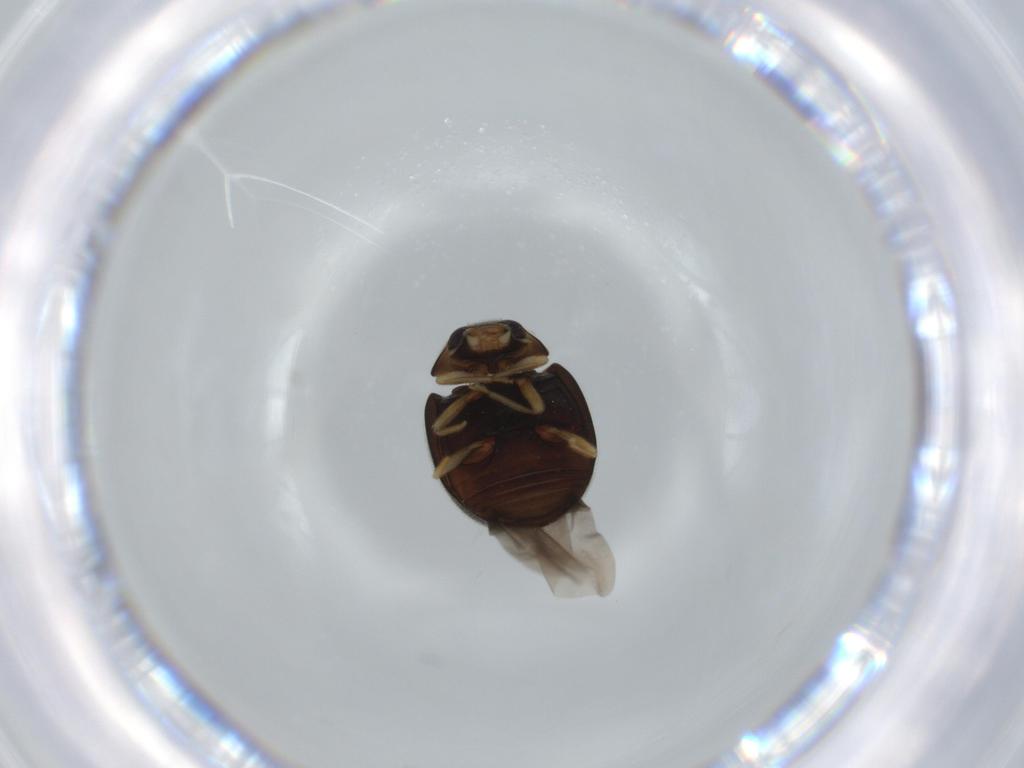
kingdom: Animalia
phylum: Arthropoda
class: Insecta
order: Coleoptera
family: Coccinellidae
